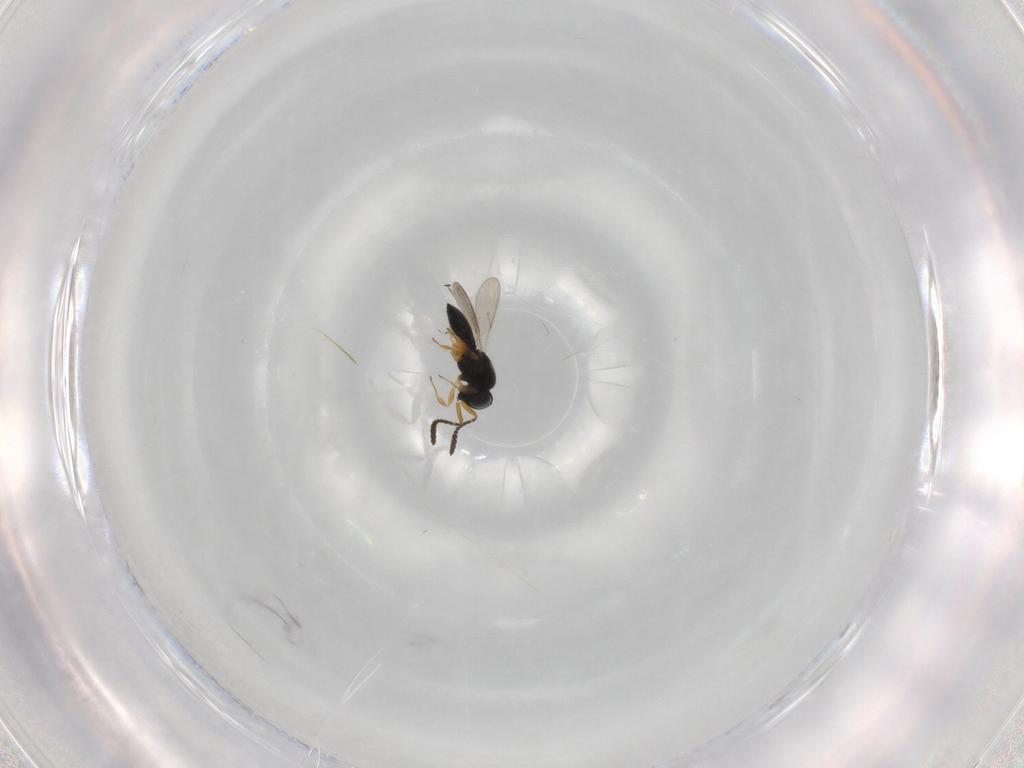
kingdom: Animalia
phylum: Arthropoda
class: Insecta
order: Hymenoptera
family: Scelionidae
